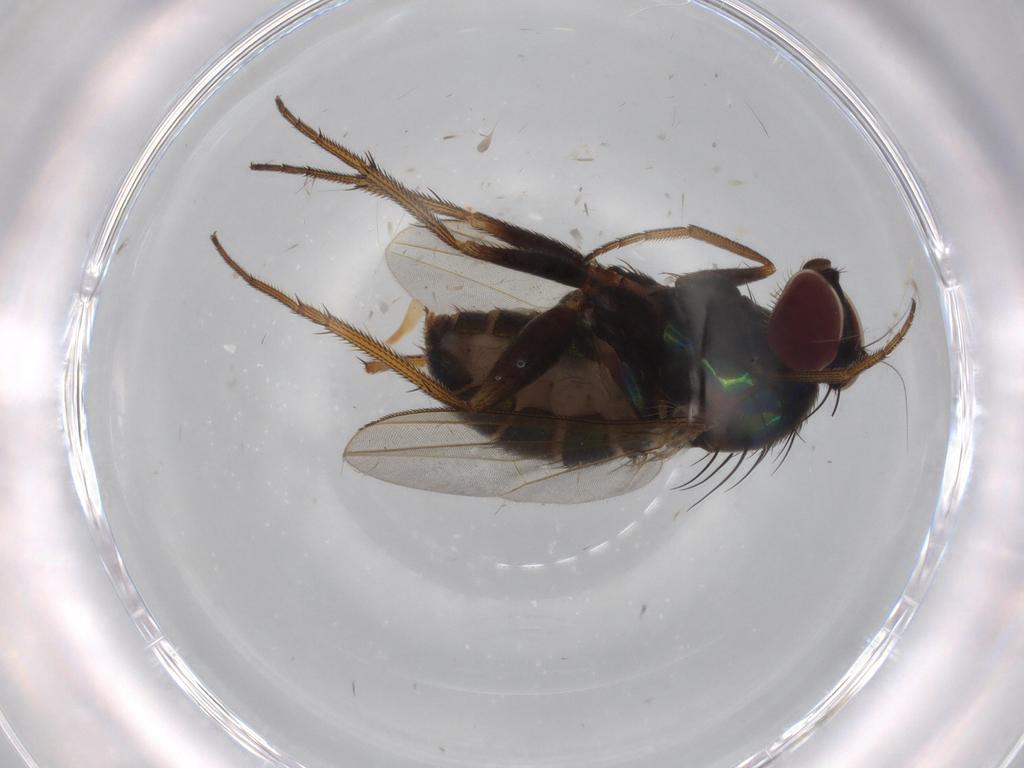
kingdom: Animalia
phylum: Arthropoda
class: Insecta
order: Diptera
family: Dolichopodidae
